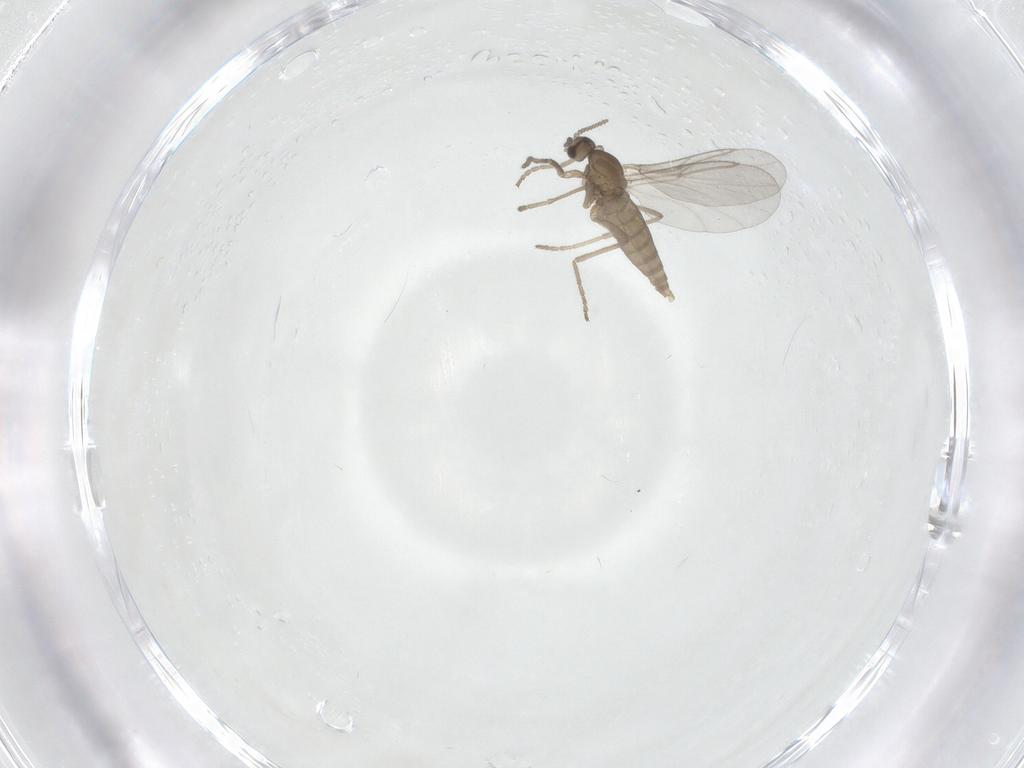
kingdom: Animalia
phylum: Arthropoda
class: Insecta
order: Diptera
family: Cecidomyiidae
